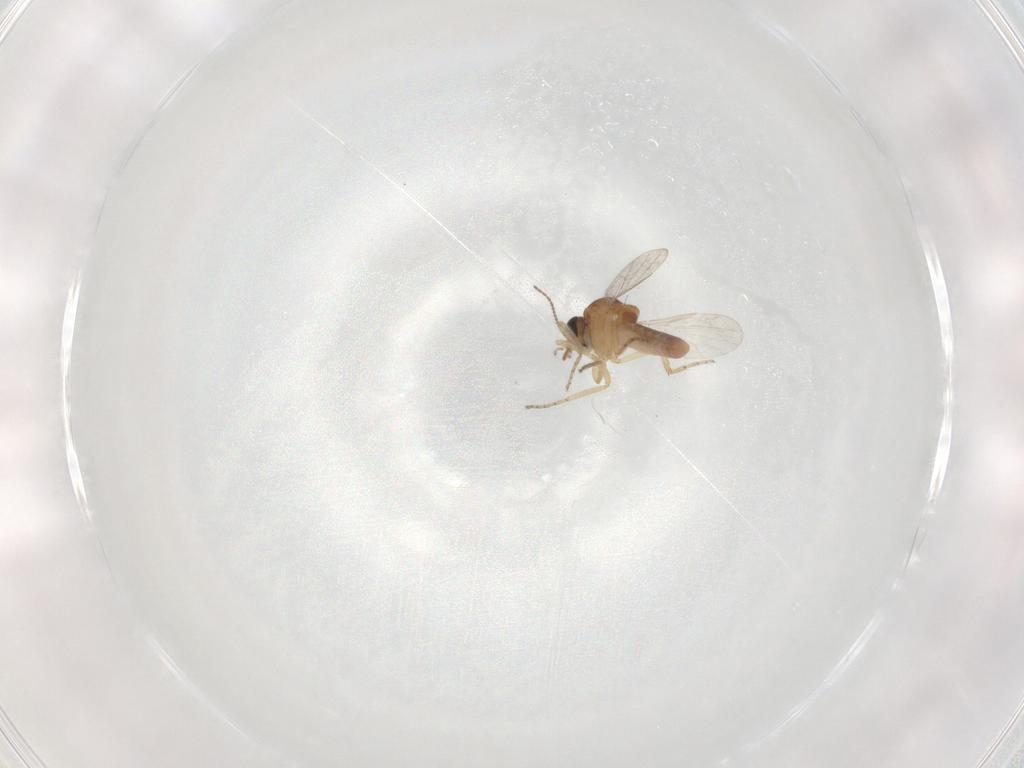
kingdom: Animalia
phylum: Arthropoda
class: Insecta
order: Diptera
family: Ceratopogonidae
